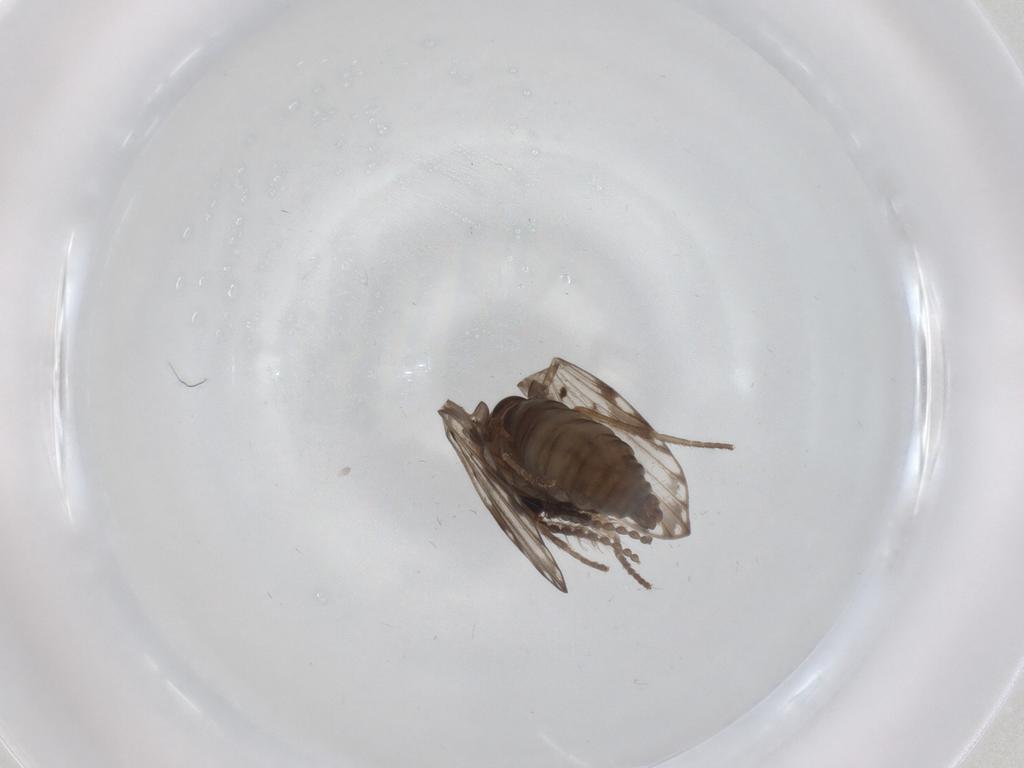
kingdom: Animalia
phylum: Arthropoda
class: Insecta
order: Diptera
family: Psychodidae
